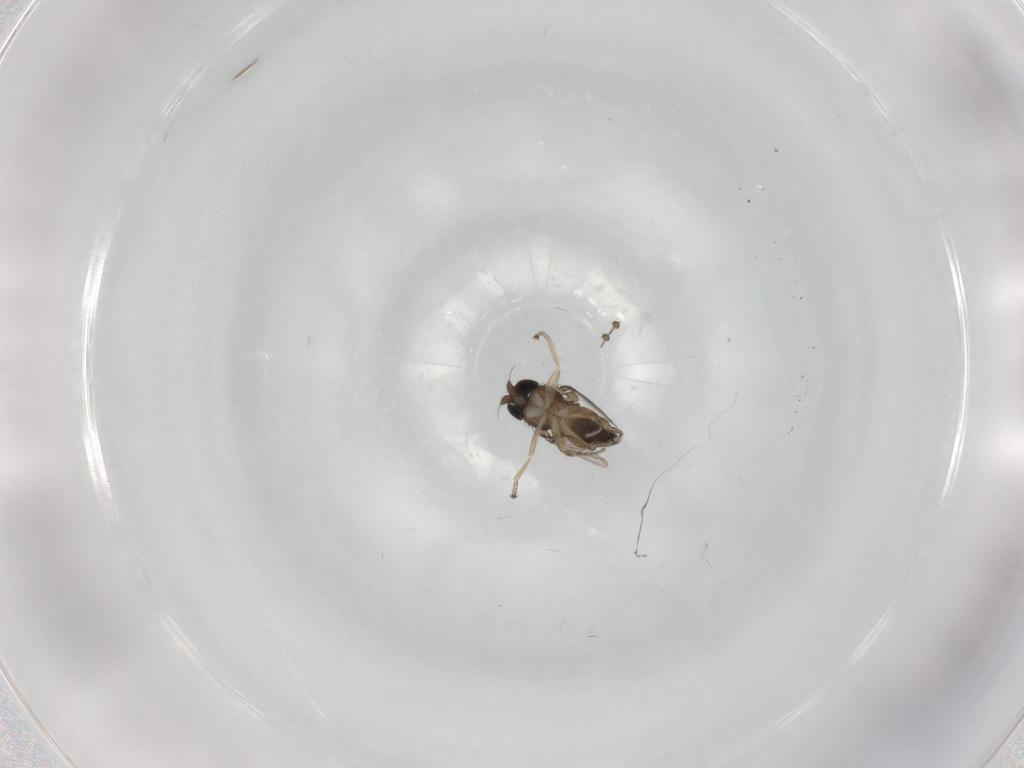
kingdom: Animalia
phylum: Arthropoda
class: Insecta
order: Diptera
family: Phoridae
